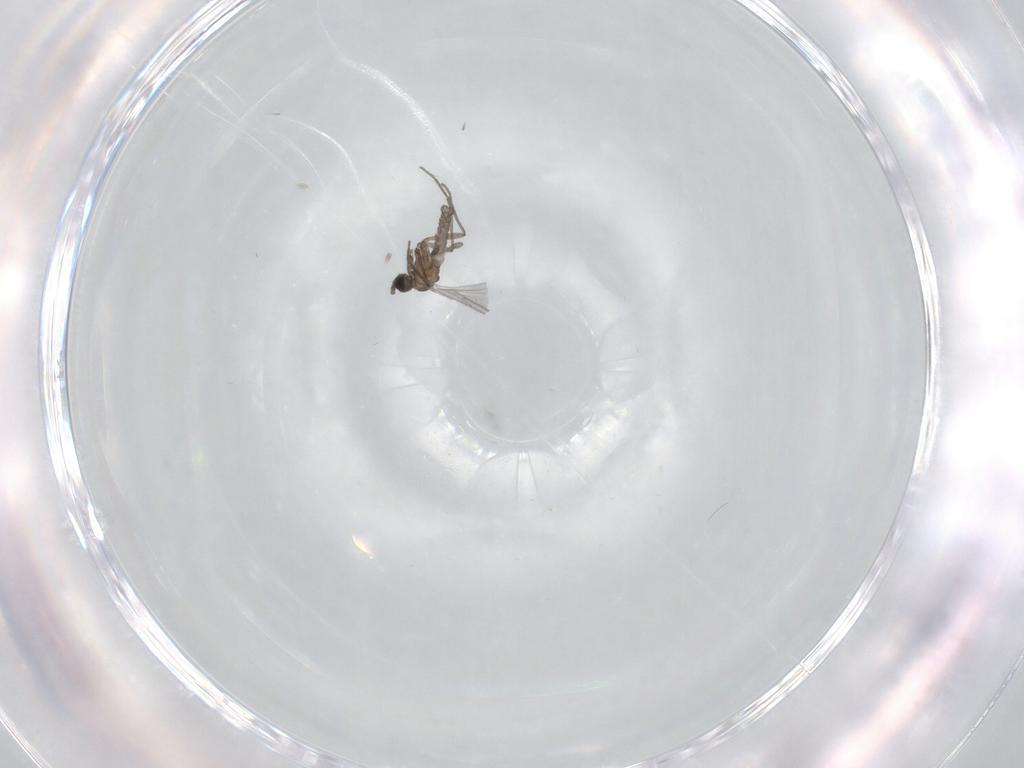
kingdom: Animalia
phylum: Arthropoda
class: Insecta
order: Diptera
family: Sciaridae
